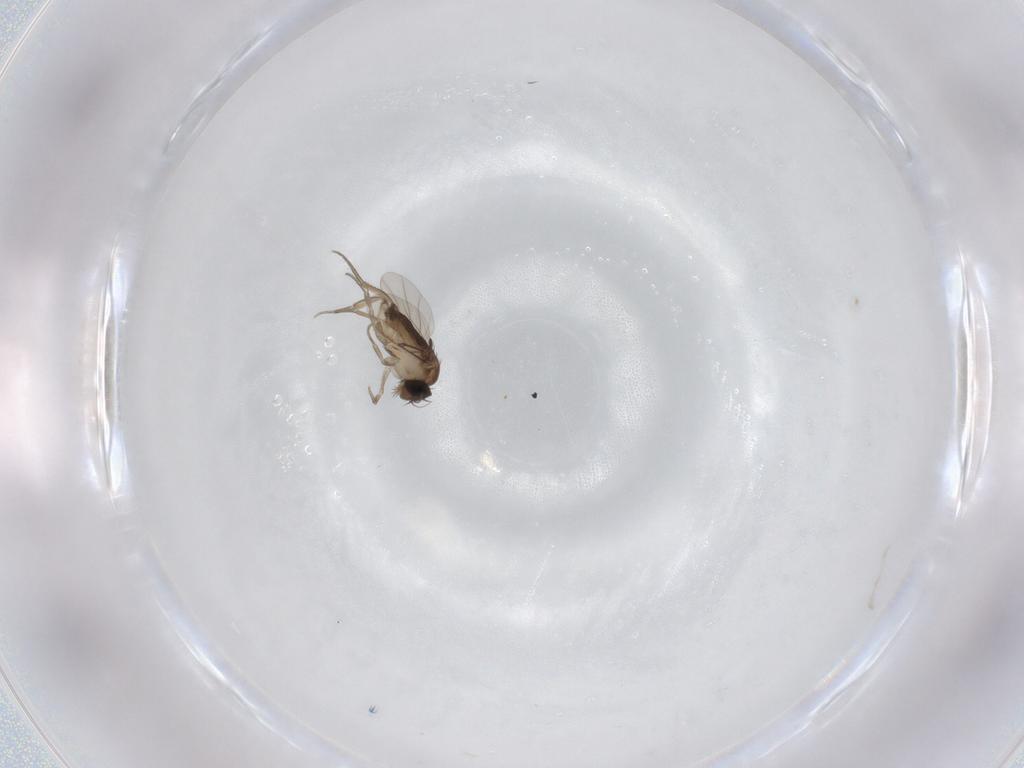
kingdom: Animalia
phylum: Arthropoda
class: Insecta
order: Diptera
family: Phoridae
